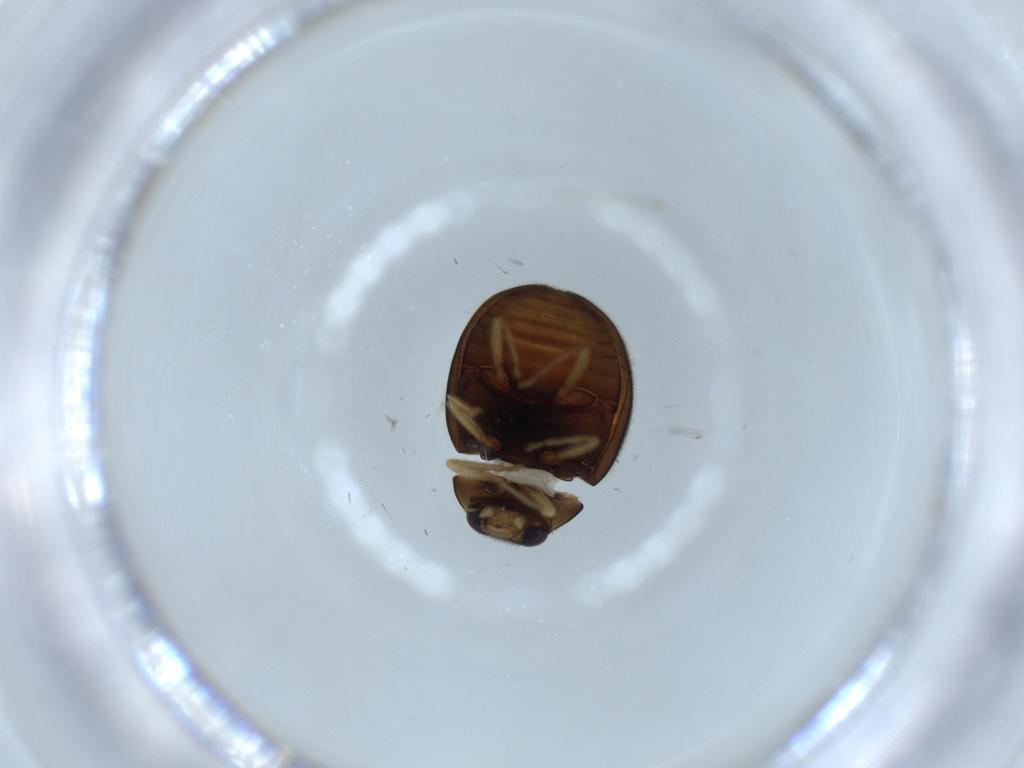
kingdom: Animalia
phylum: Arthropoda
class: Insecta
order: Coleoptera
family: Coccinellidae
